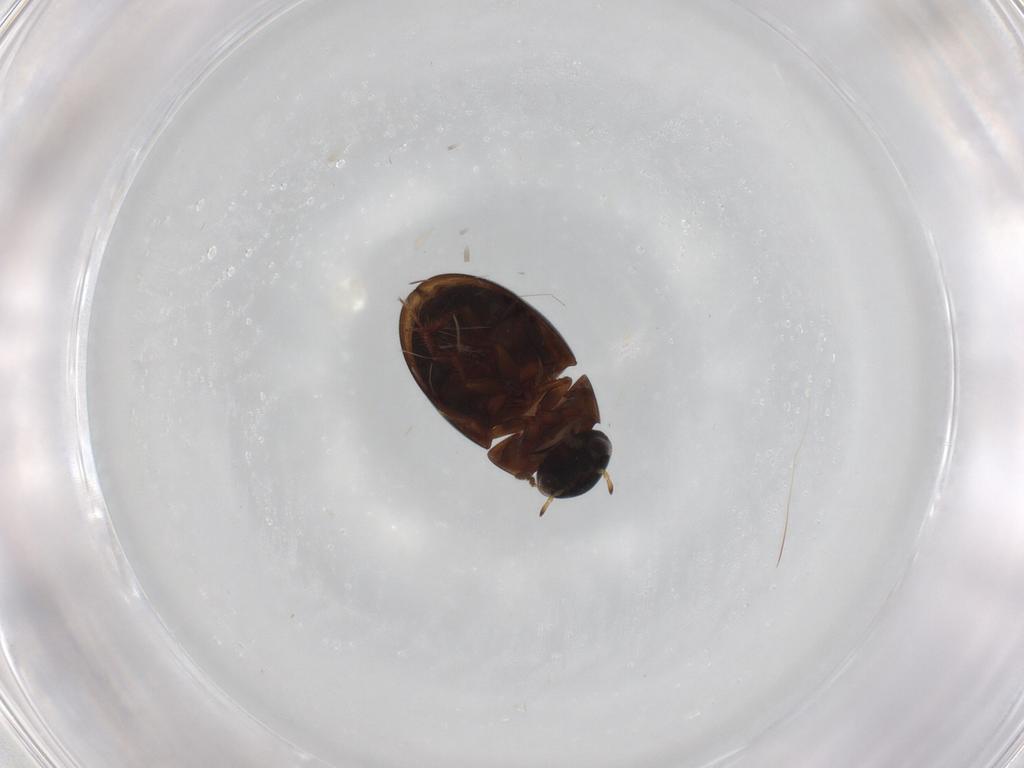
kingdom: Animalia
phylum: Arthropoda
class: Insecta
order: Coleoptera
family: Hydrophilidae
